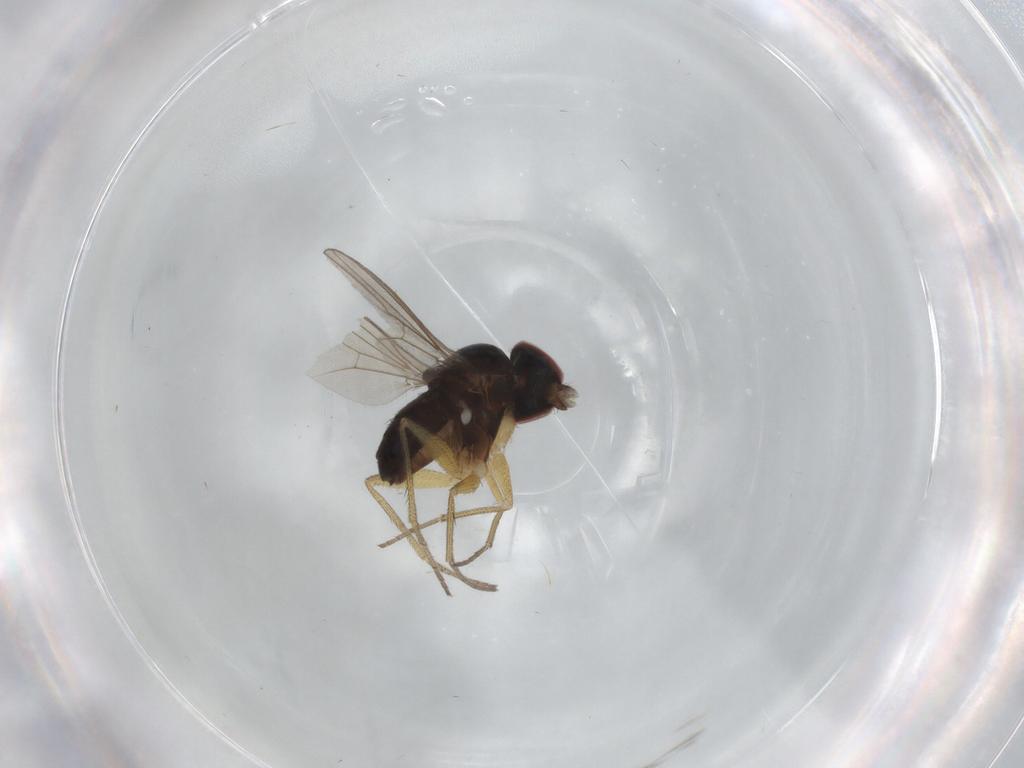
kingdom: Animalia
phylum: Arthropoda
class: Insecta
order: Diptera
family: Dolichopodidae
